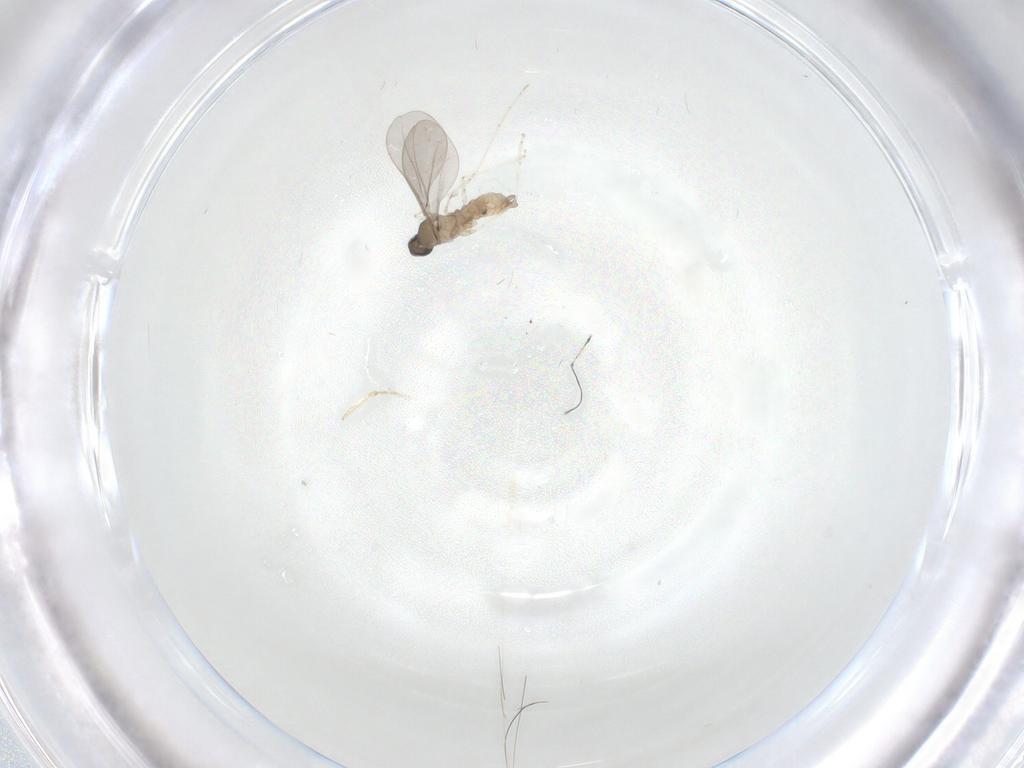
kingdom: Animalia
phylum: Arthropoda
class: Insecta
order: Diptera
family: Cecidomyiidae
